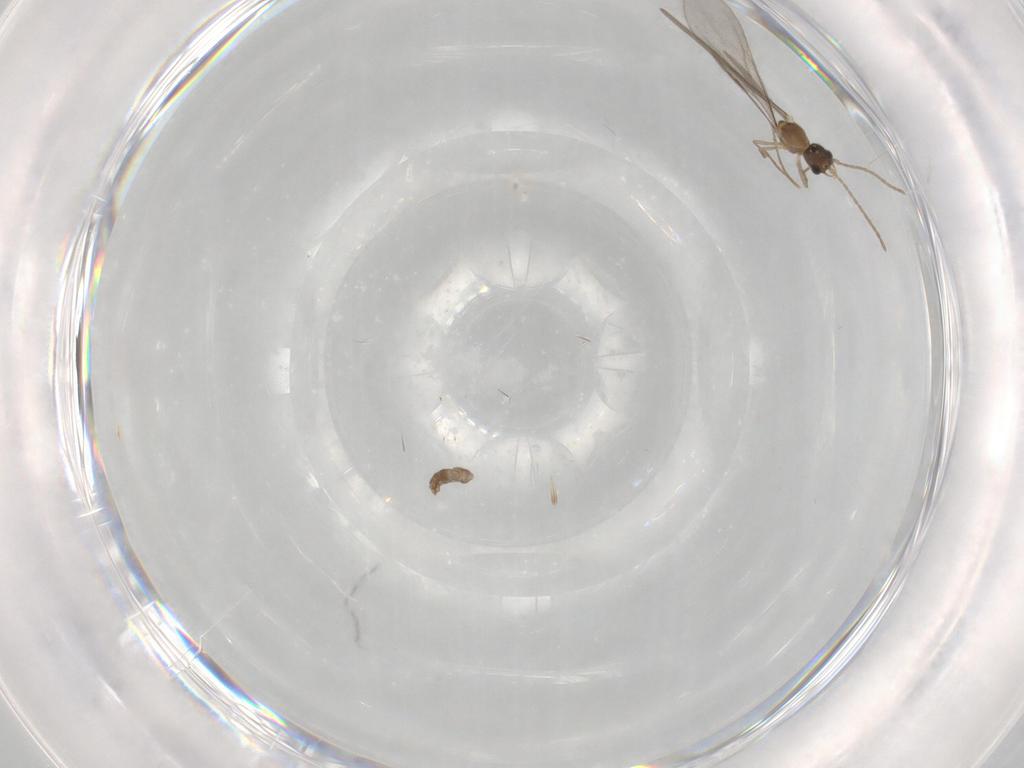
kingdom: Animalia
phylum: Arthropoda
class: Insecta
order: Hymenoptera
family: Formicidae
